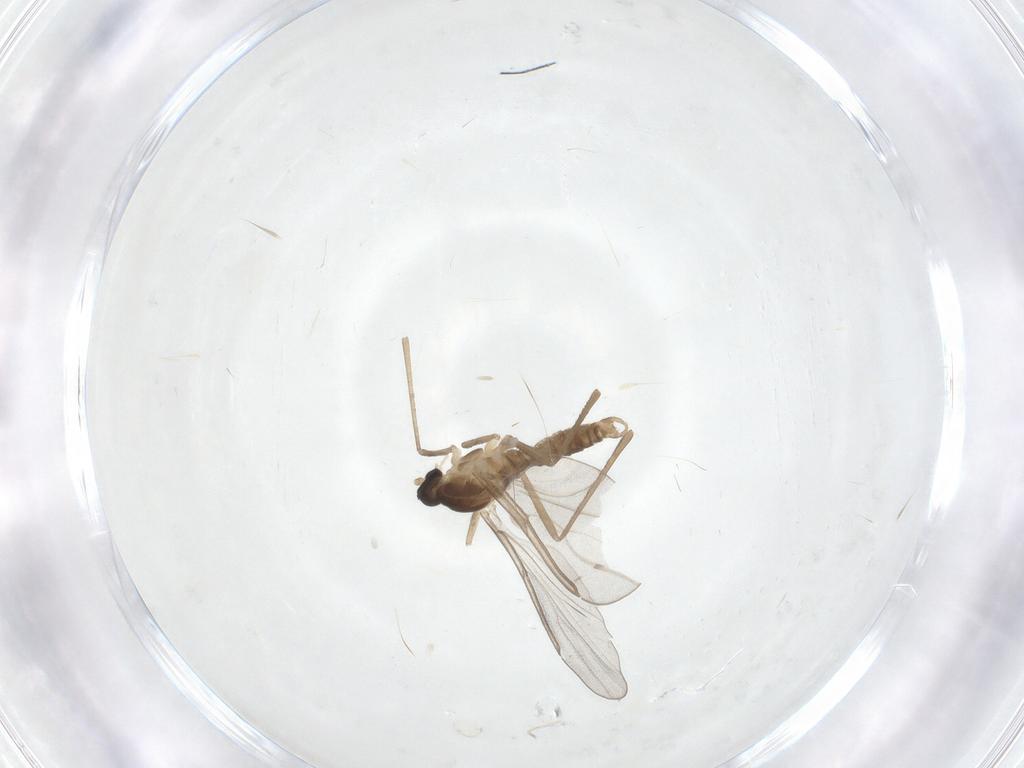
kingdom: Animalia
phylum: Arthropoda
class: Insecta
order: Diptera
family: Cecidomyiidae
